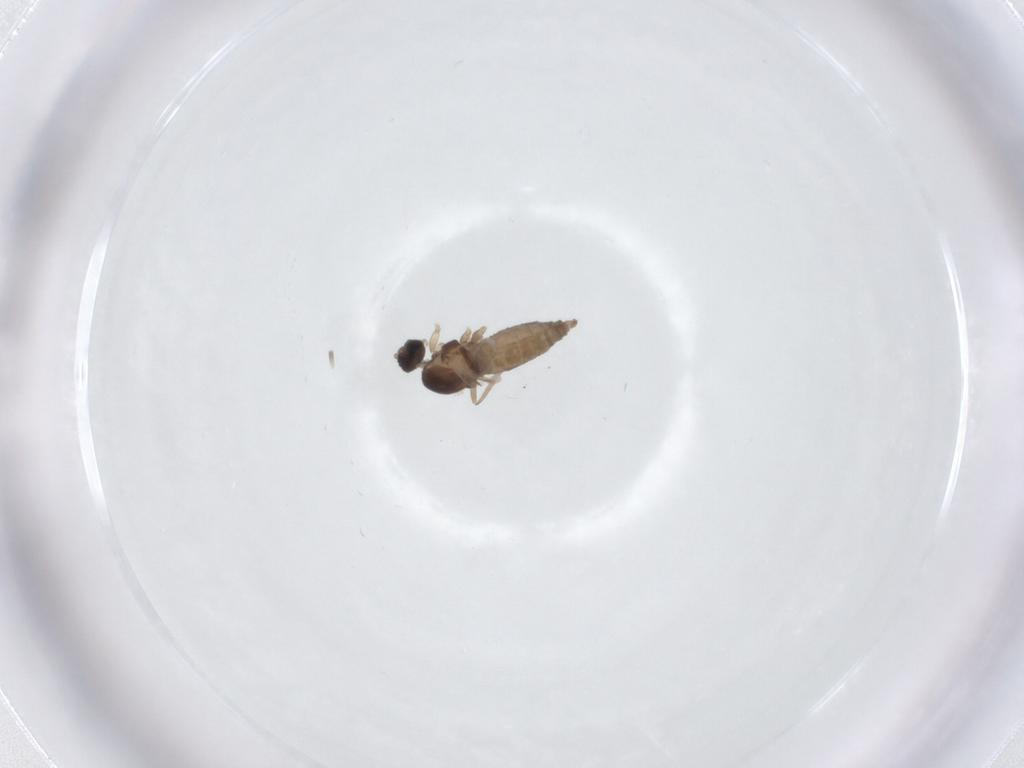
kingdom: Animalia
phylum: Arthropoda
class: Insecta
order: Diptera
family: Cecidomyiidae
